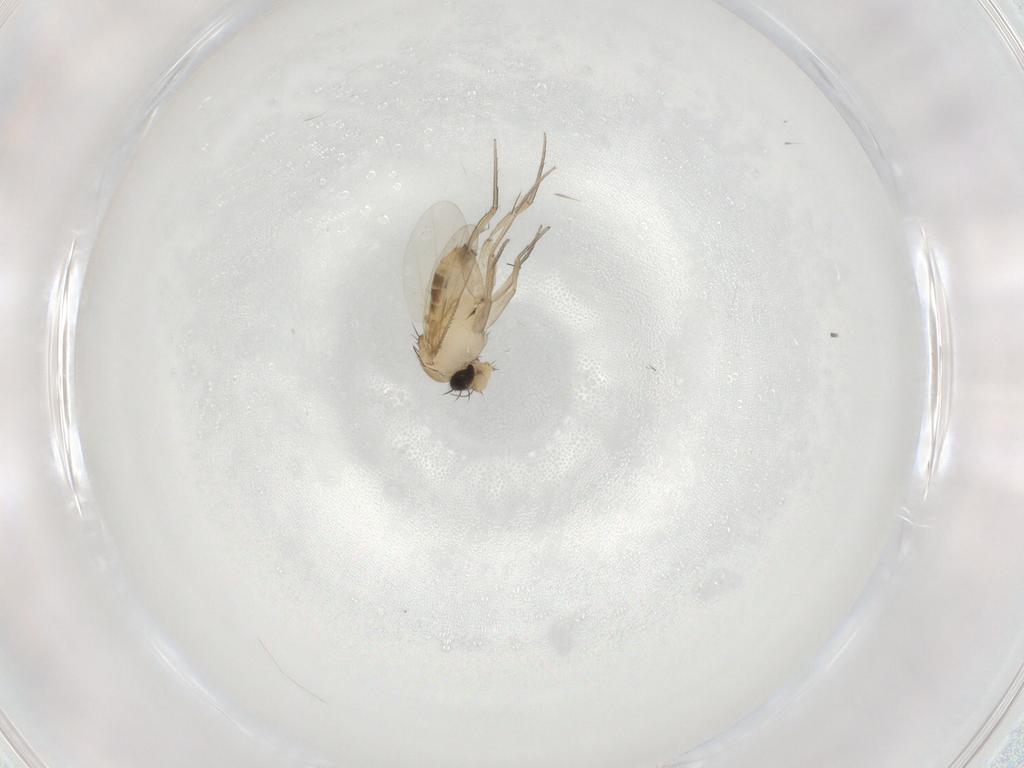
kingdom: Animalia
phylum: Arthropoda
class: Insecta
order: Diptera
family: Phoridae
